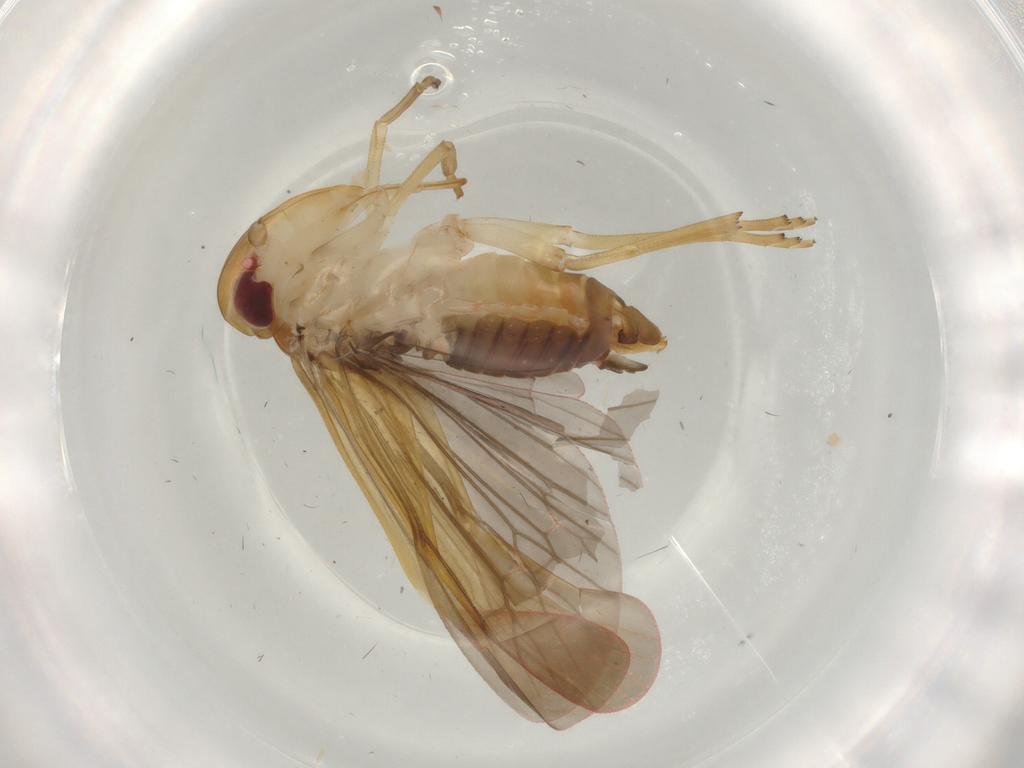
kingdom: Animalia
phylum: Arthropoda
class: Insecta
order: Hemiptera
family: Achilidae
